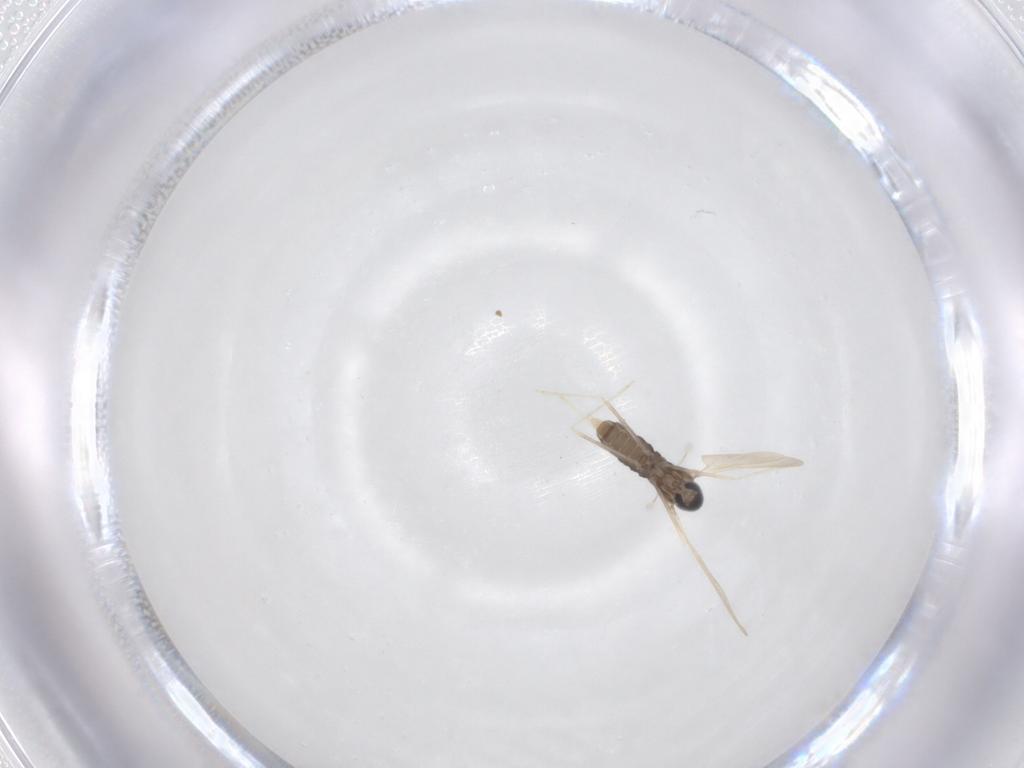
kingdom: Animalia
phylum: Arthropoda
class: Insecta
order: Diptera
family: Cecidomyiidae
